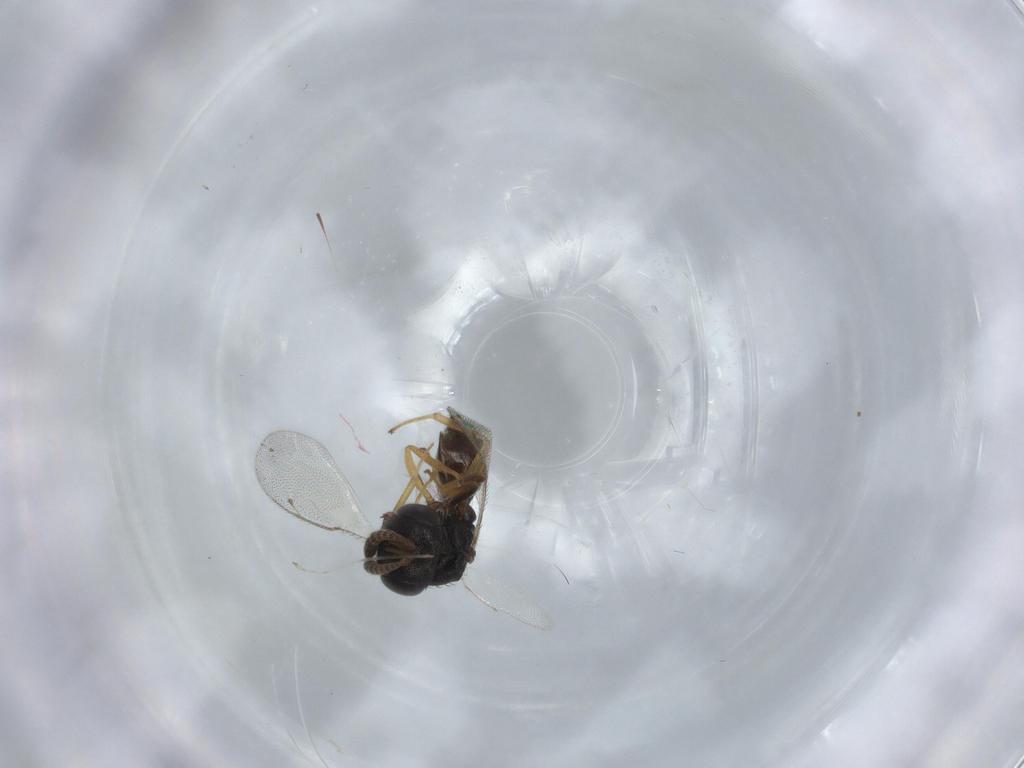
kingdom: Animalia
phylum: Arthropoda
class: Insecta
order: Hymenoptera
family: Pteromalidae
